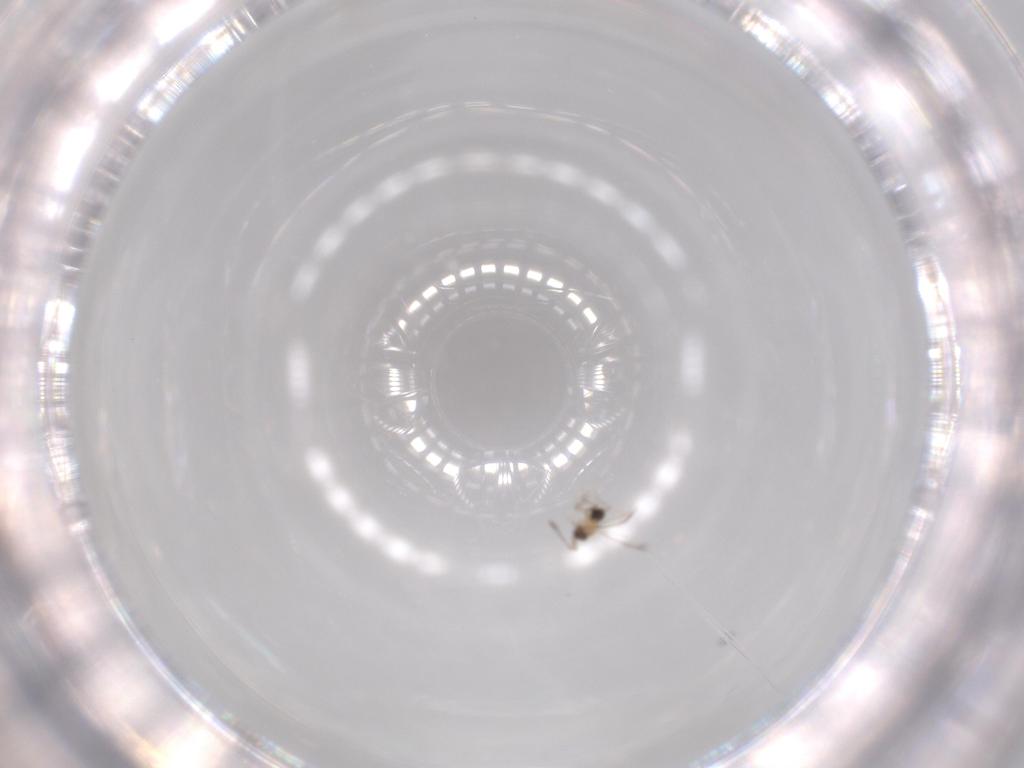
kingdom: Animalia
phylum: Arthropoda
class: Insecta
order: Hymenoptera
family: Mymaridae
